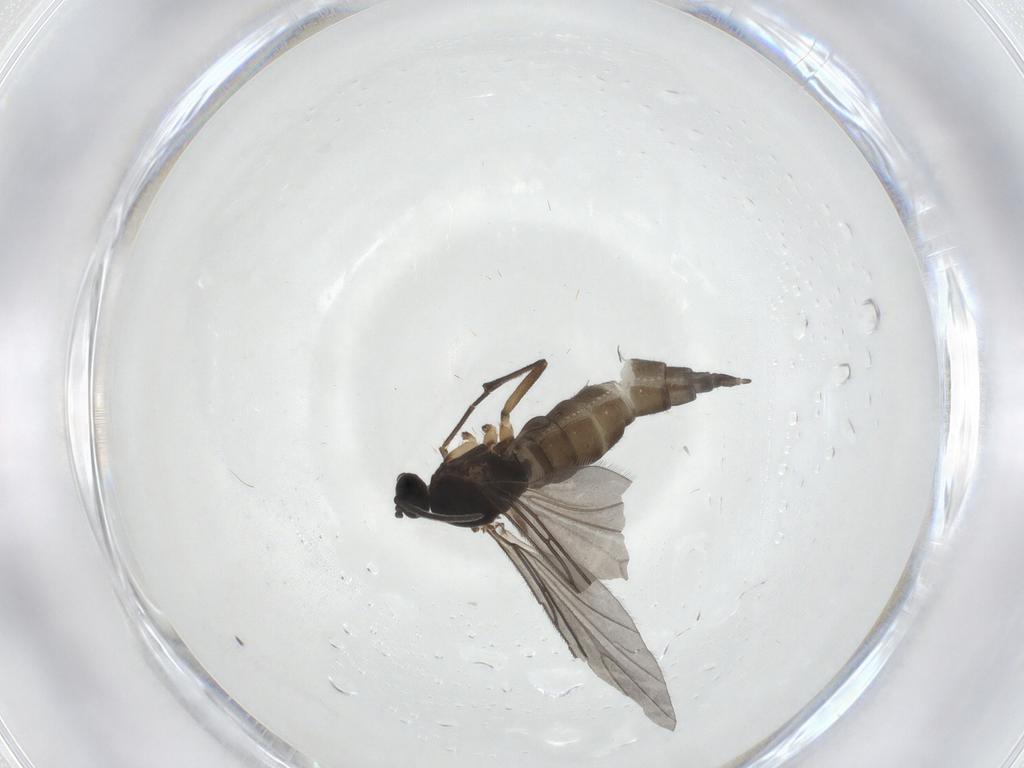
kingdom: Animalia
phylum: Arthropoda
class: Insecta
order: Diptera
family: Sciaridae
